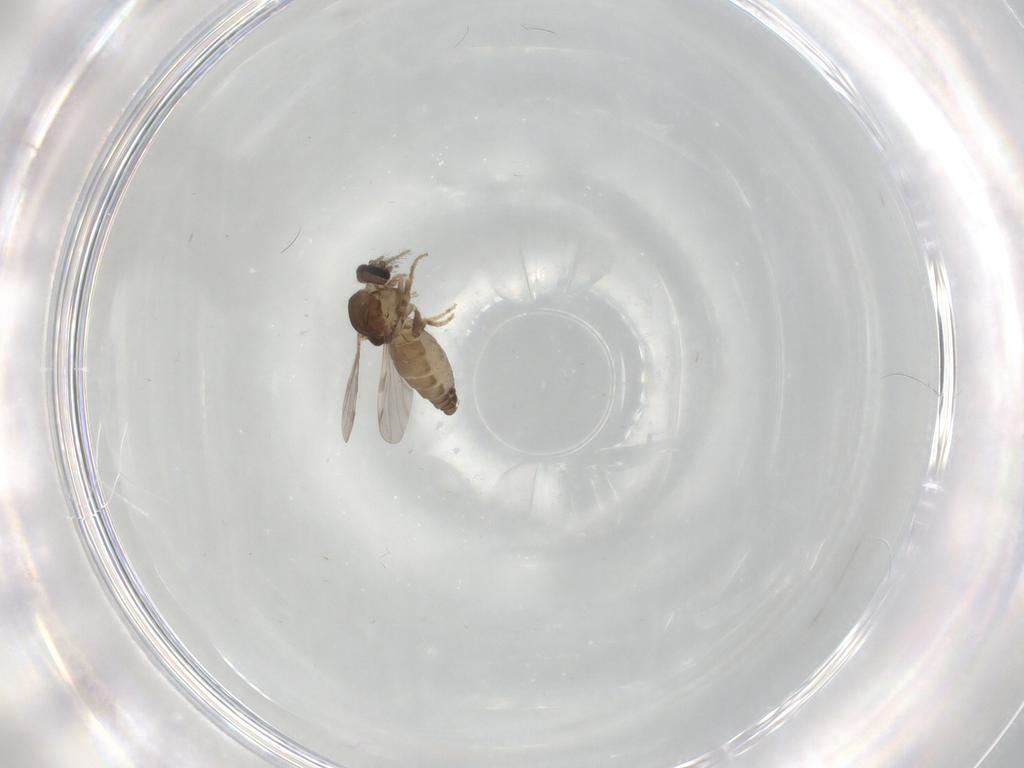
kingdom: Animalia
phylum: Arthropoda
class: Insecta
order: Diptera
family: Ceratopogonidae
